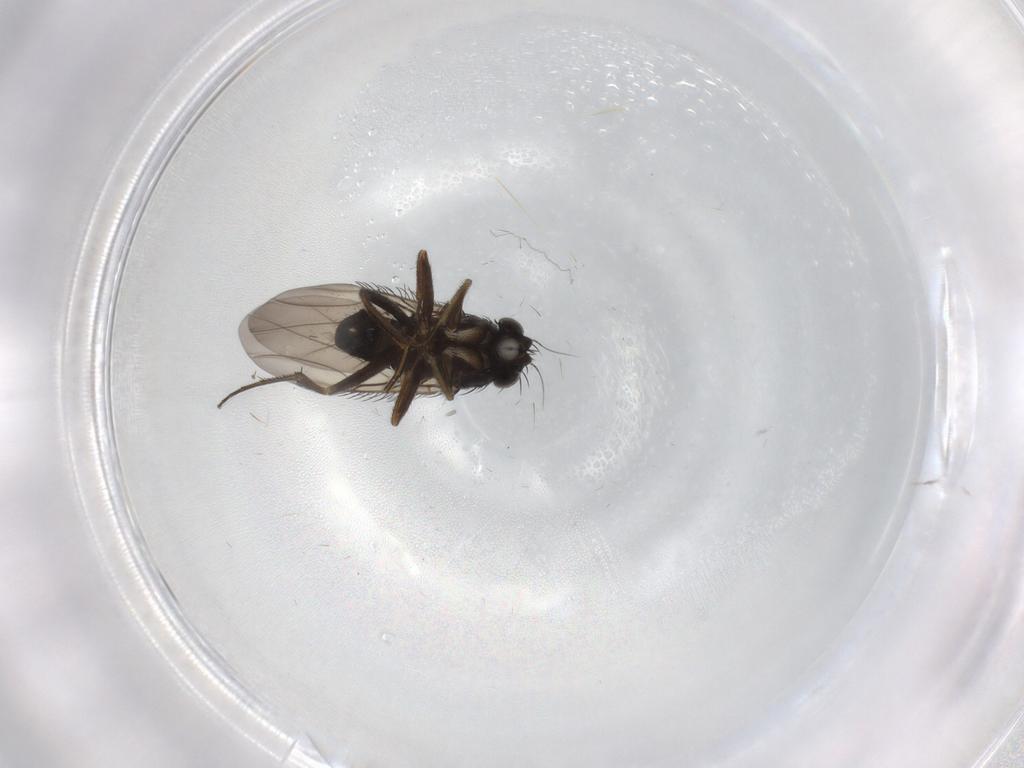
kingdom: Animalia
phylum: Arthropoda
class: Insecta
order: Diptera
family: Phoridae
